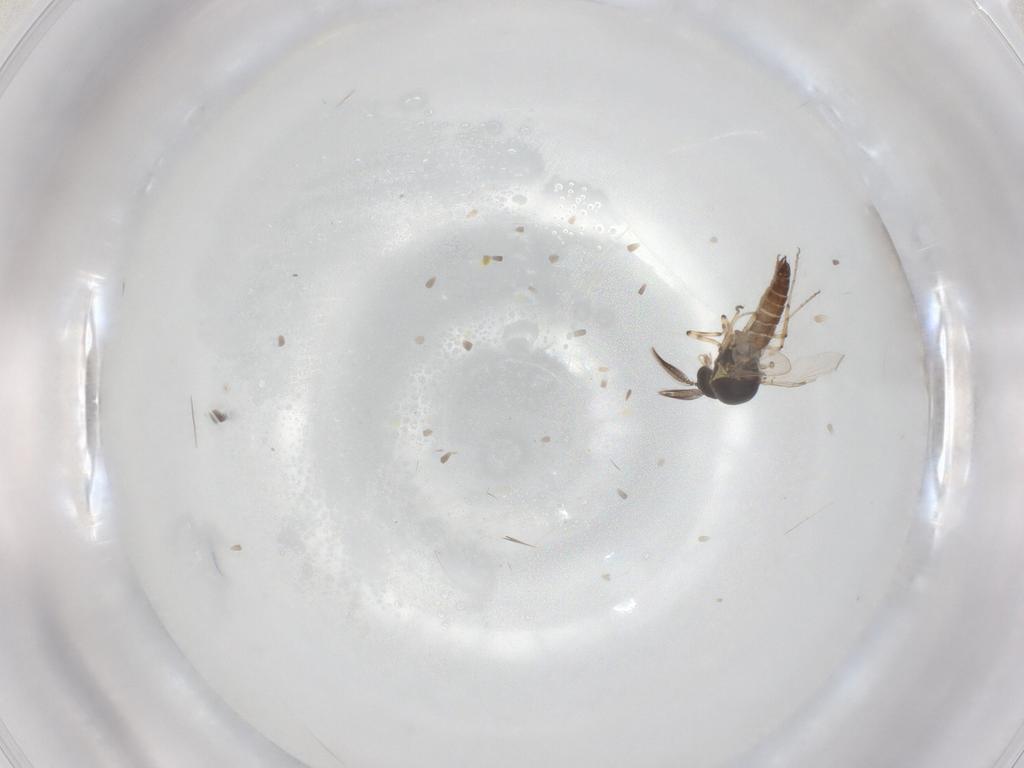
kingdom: Animalia
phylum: Arthropoda
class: Insecta
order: Diptera
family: Ceratopogonidae
